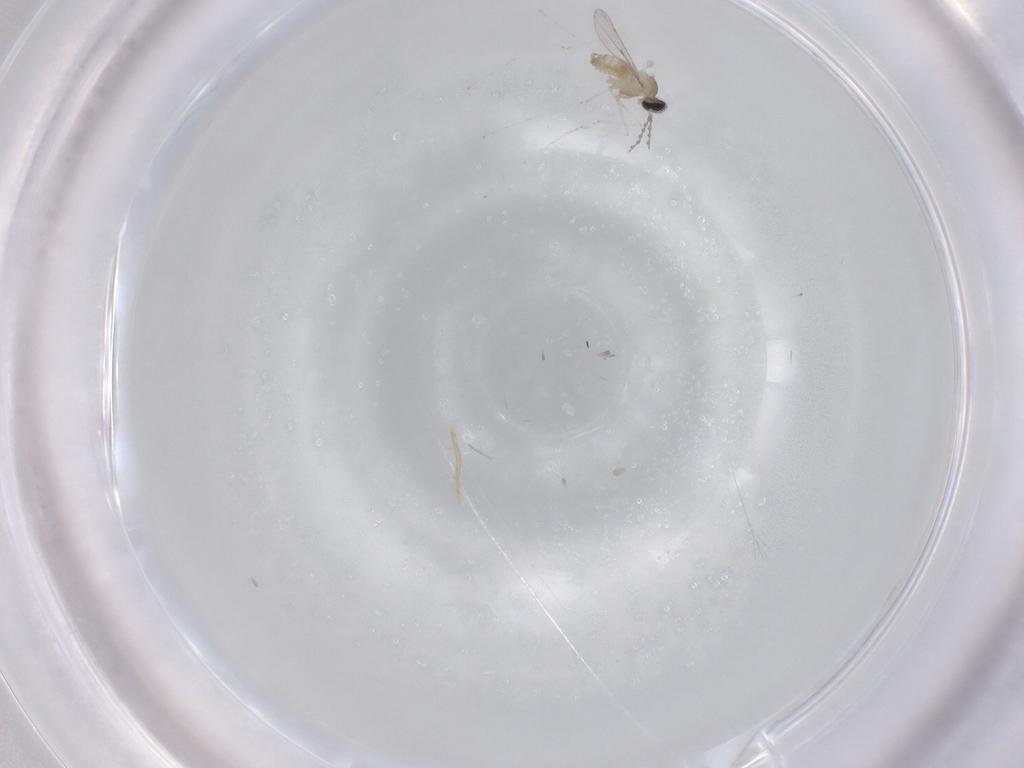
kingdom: Animalia
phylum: Arthropoda
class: Insecta
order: Diptera
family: Cecidomyiidae
